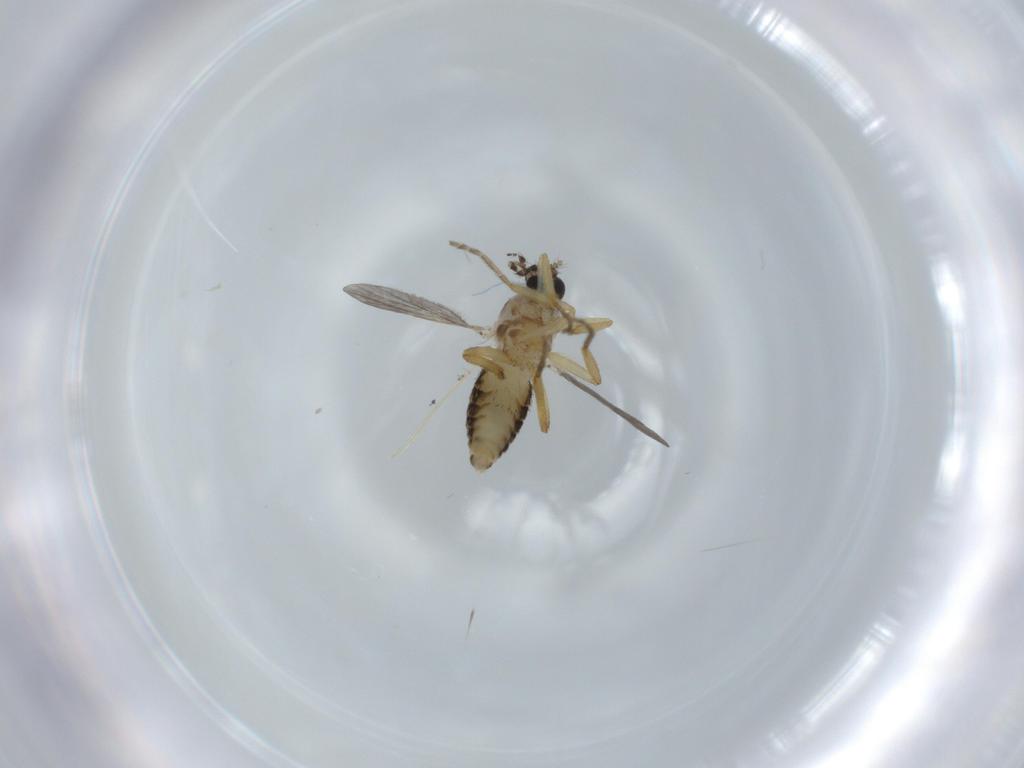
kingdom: Animalia
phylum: Arthropoda
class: Insecta
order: Diptera
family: Ceratopogonidae
